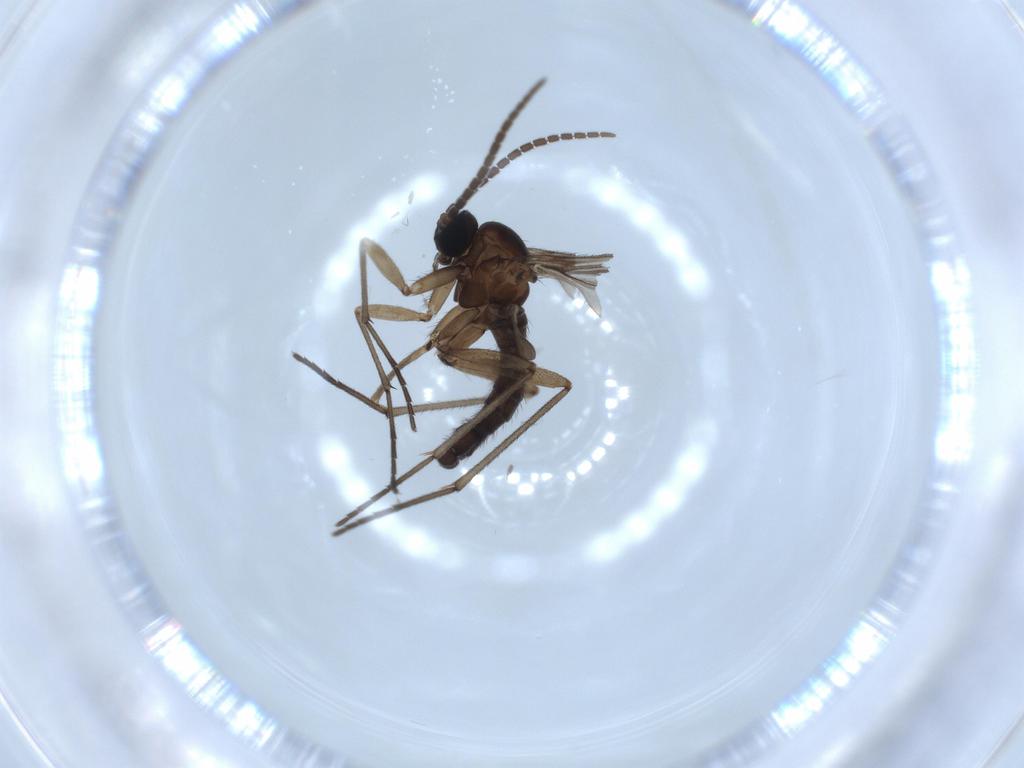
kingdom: Animalia
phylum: Arthropoda
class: Insecta
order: Diptera
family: Sciaridae
